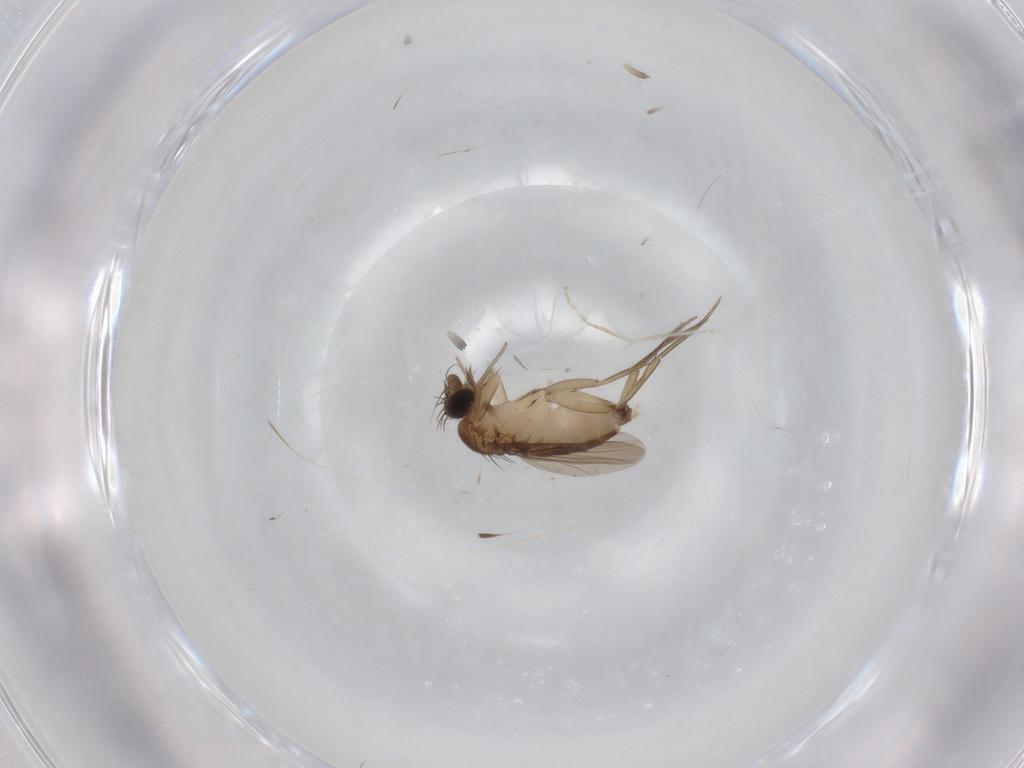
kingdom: Animalia
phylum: Arthropoda
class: Insecta
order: Diptera
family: Phoridae
